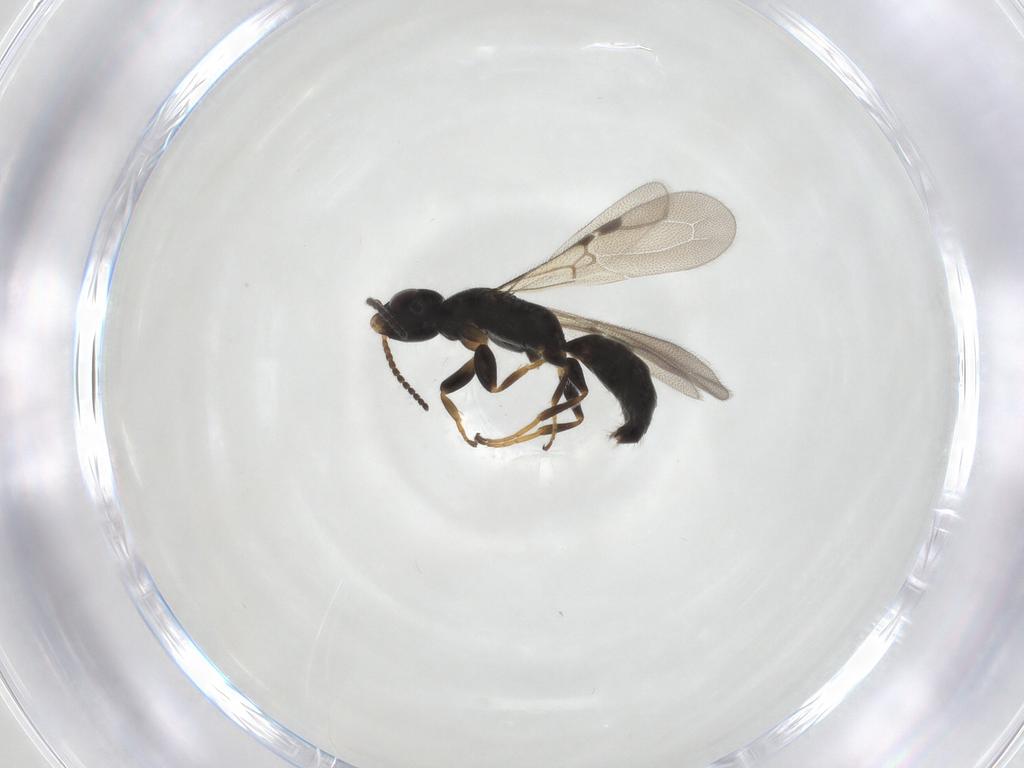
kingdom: Animalia
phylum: Arthropoda
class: Insecta
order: Hymenoptera
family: Bethylidae
